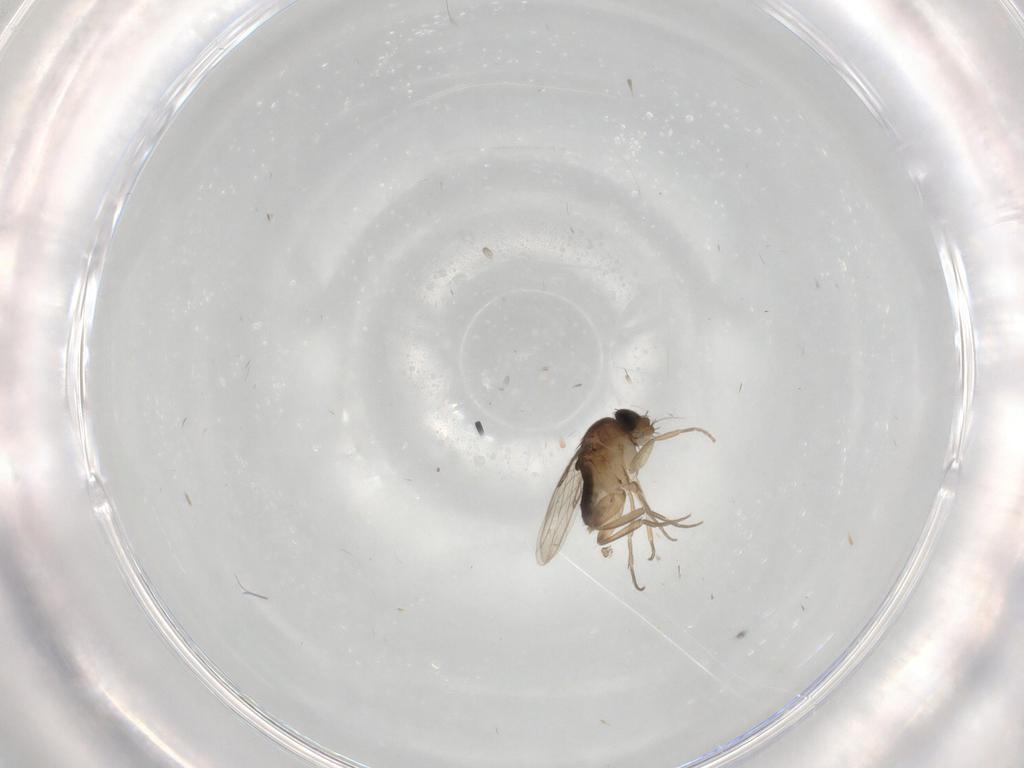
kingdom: Animalia
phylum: Arthropoda
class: Insecta
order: Diptera
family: Phoridae
